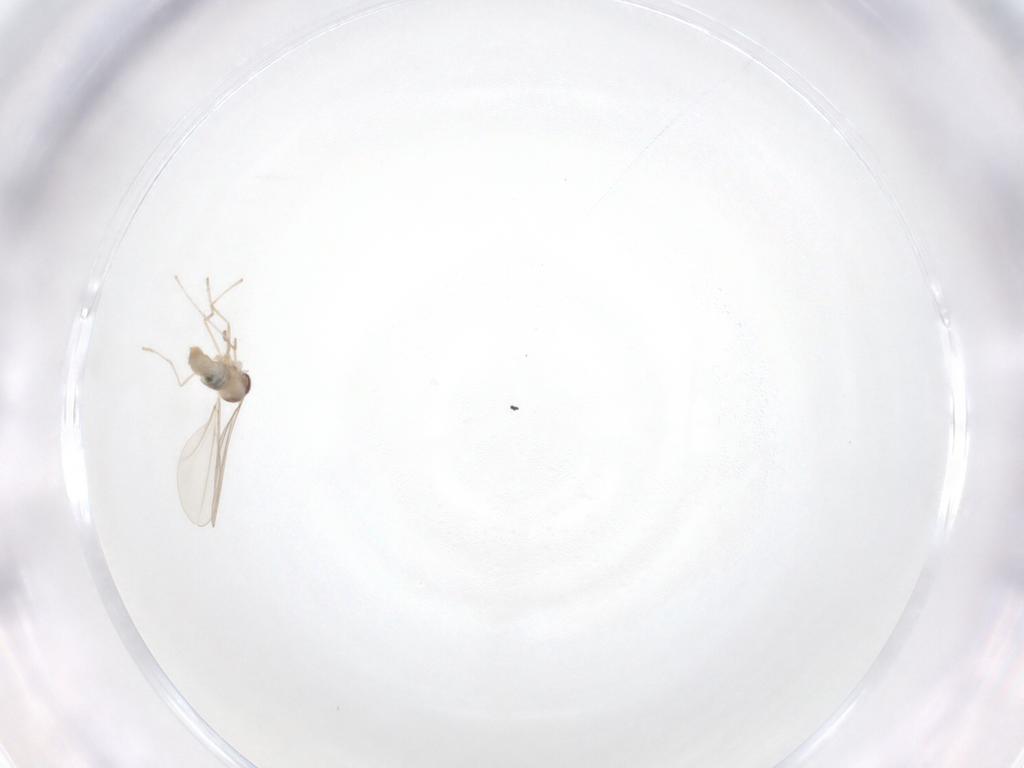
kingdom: Animalia
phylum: Arthropoda
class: Insecta
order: Diptera
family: Cecidomyiidae
